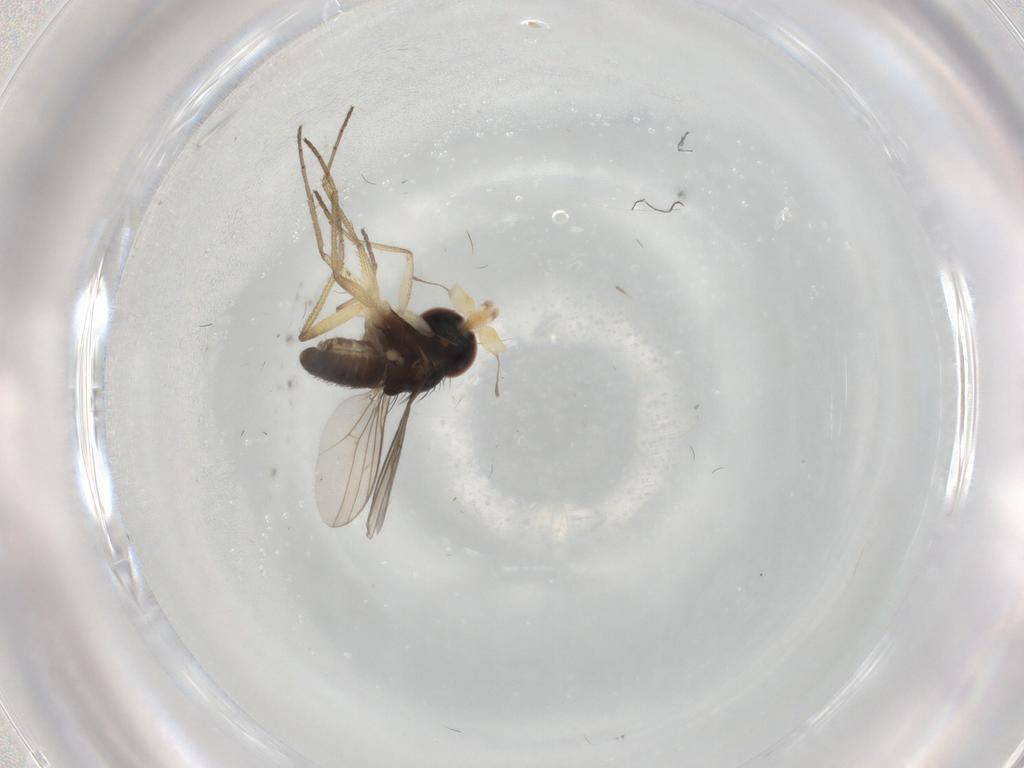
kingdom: Animalia
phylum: Arthropoda
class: Insecta
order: Diptera
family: Dolichopodidae
